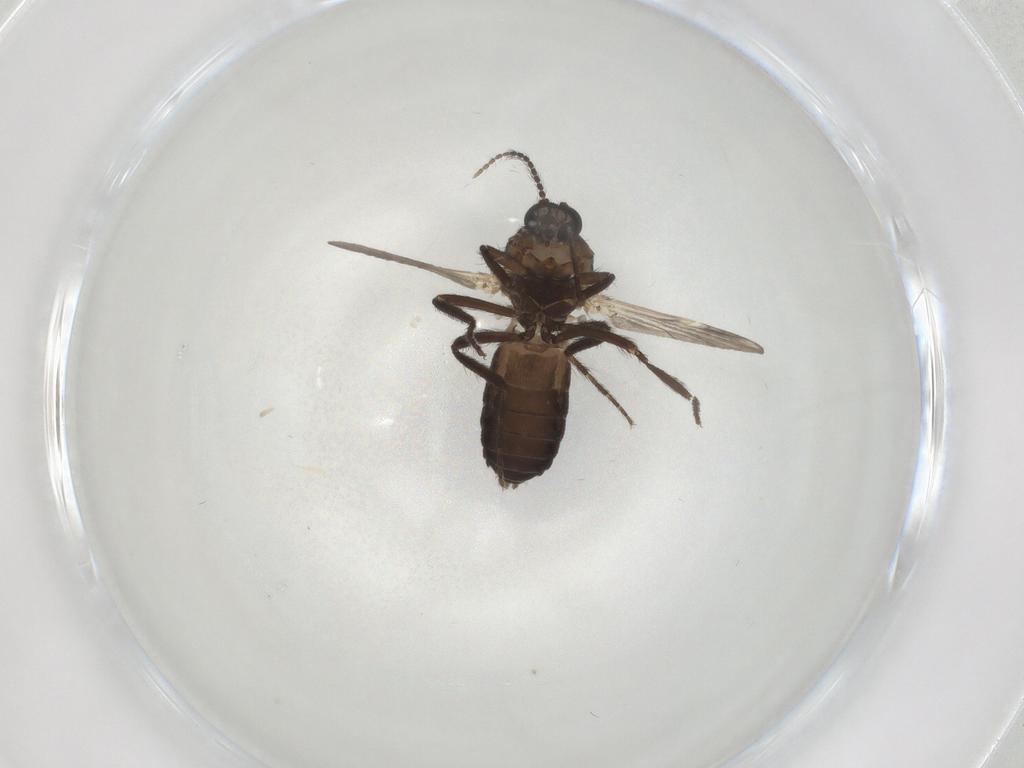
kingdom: Animalia
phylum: Arthropoda
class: Insecta
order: Diptera
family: Ceratopogonidae
